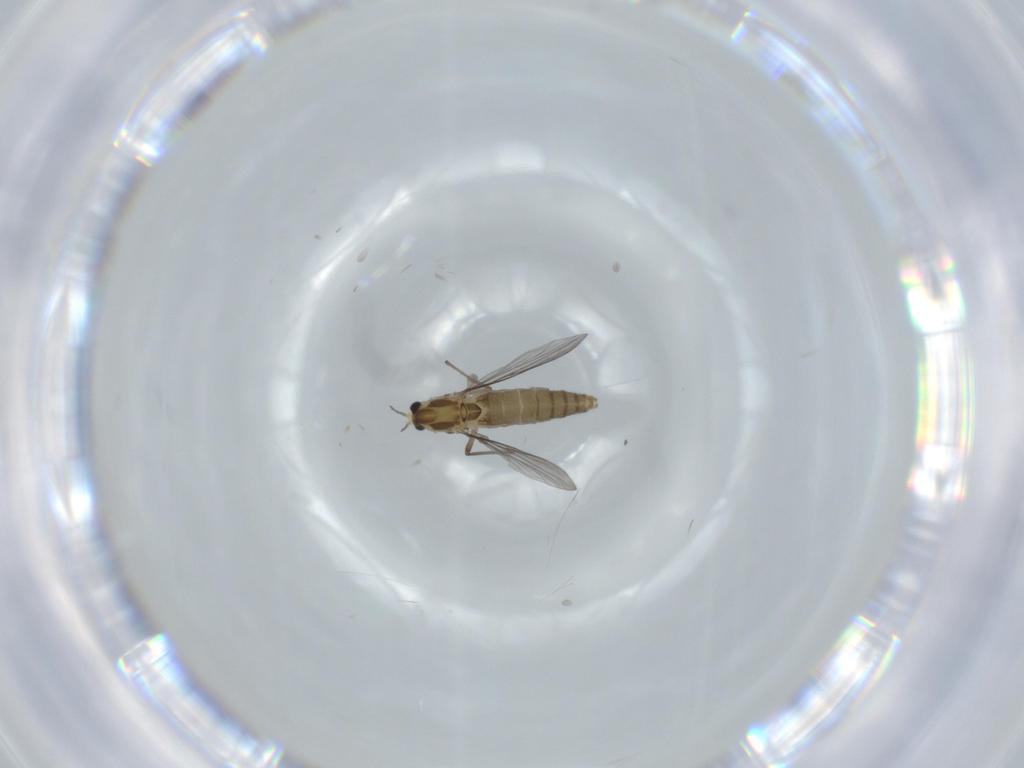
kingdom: Animalia
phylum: Arthropoda
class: Insecta
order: Diptera
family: Chironomidae
